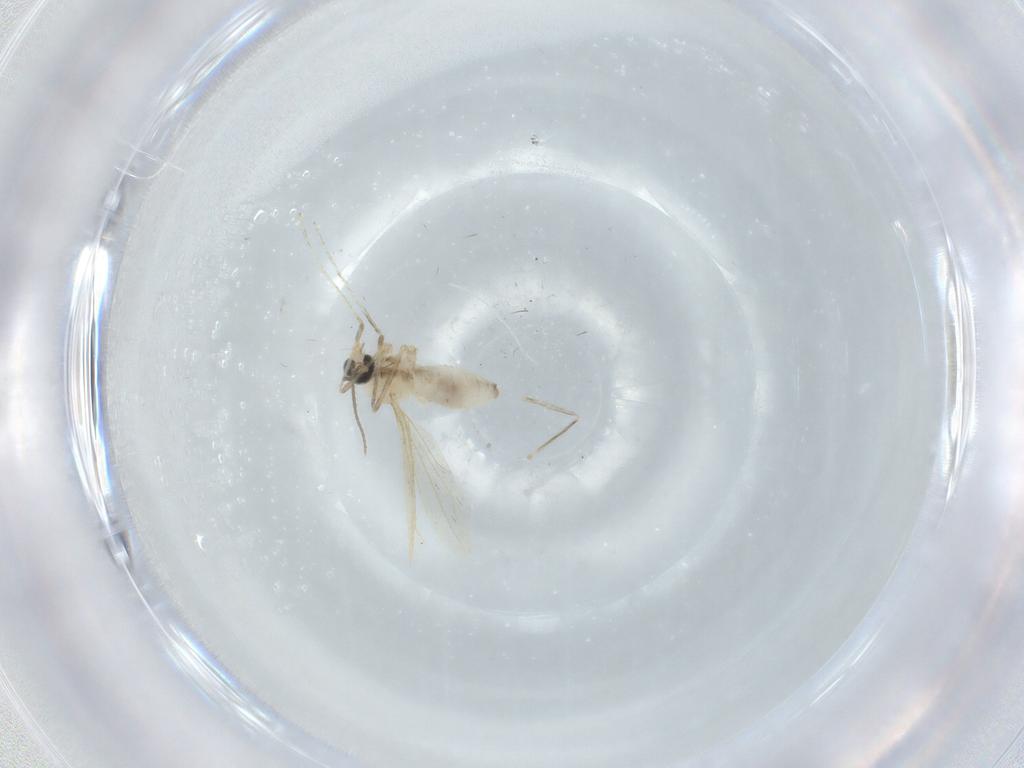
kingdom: Animalia
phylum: Arthropoda
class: Insecta
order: Diptera
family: Cecidomyiidae
